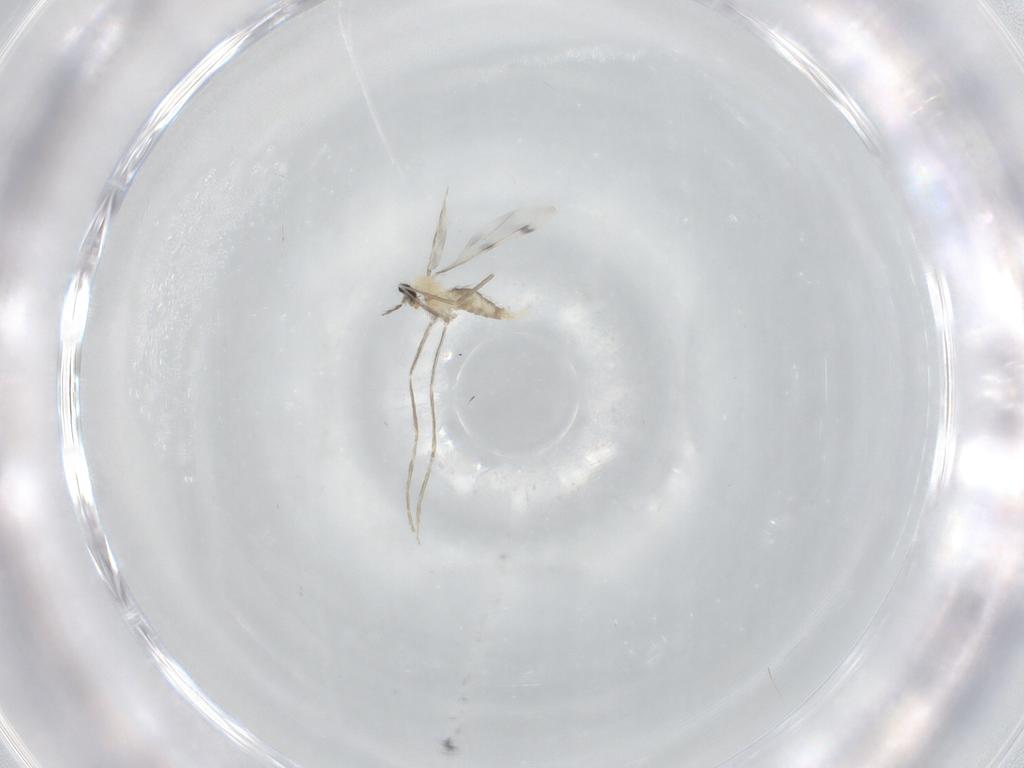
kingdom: Animalia
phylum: Arthropoda
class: Insecta
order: Diptera
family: Cecidomyiidae
